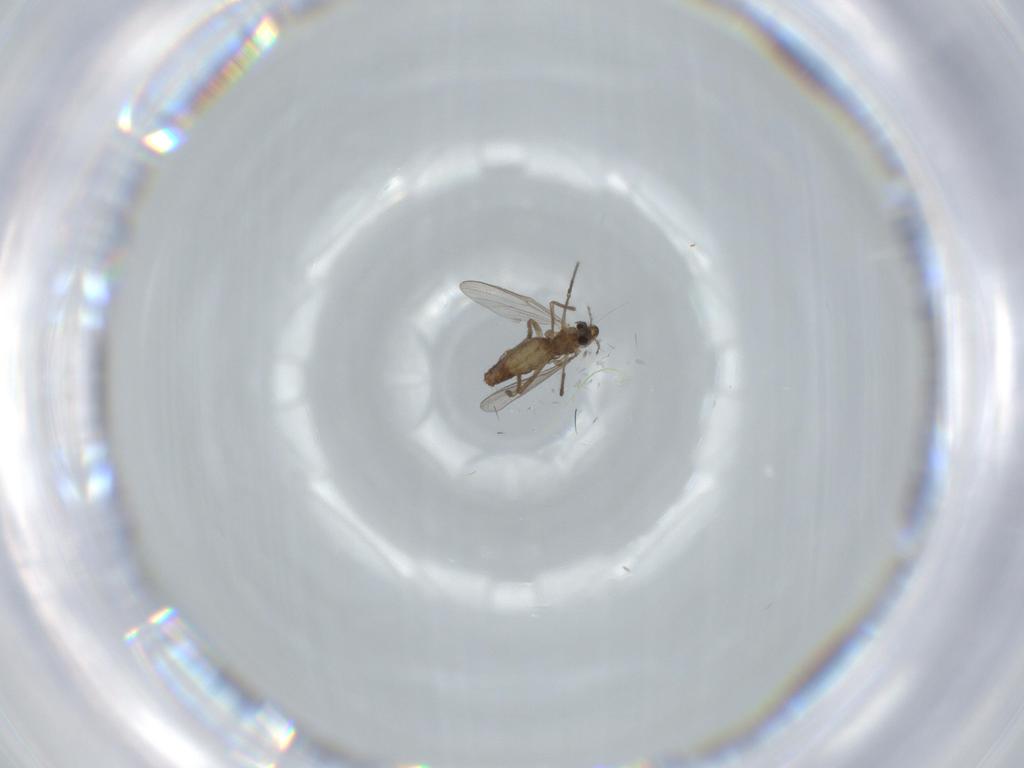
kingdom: Animalia
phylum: Arthropoda
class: Insecta
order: Diptera
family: Chironomidae
